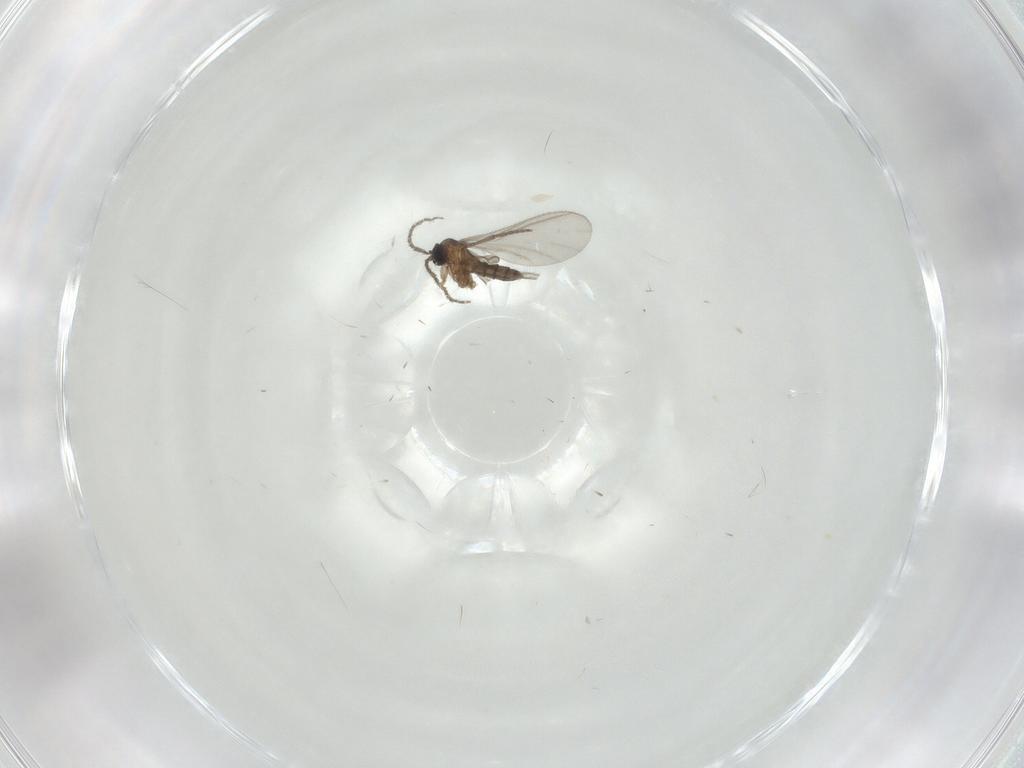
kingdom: Animalia
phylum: Arthropoda
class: Insecta
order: Diptera
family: Sciaridae
